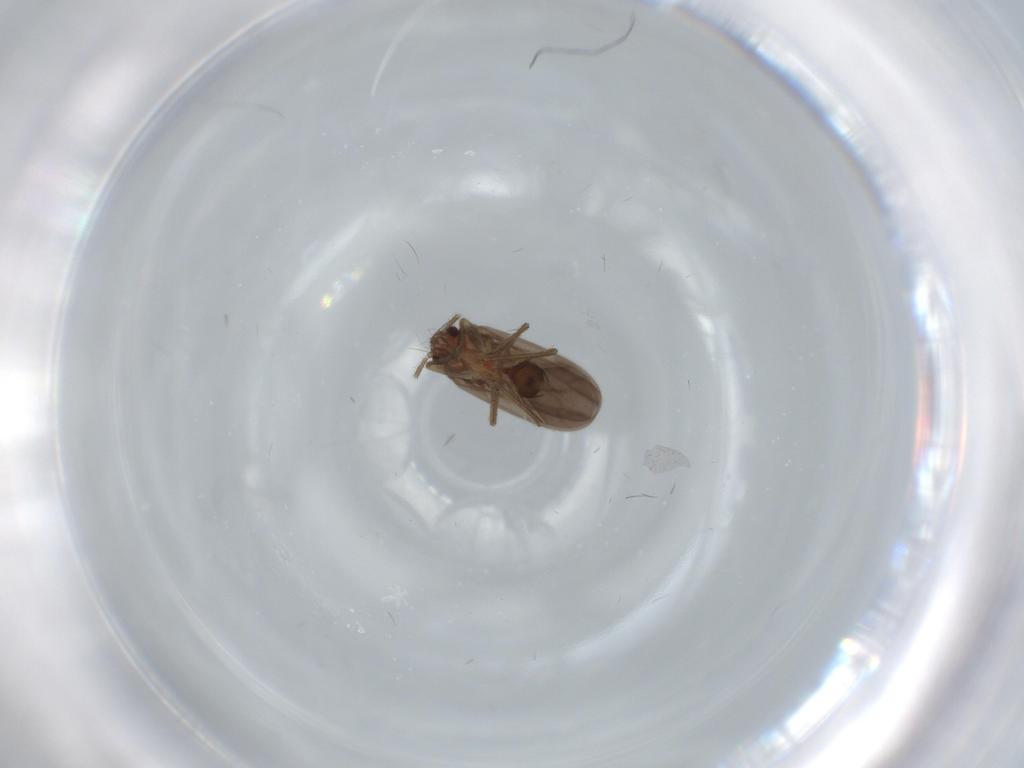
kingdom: Animalia
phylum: Arthropoda
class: Insecta
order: Hemiptera
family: Ceratocombidae
